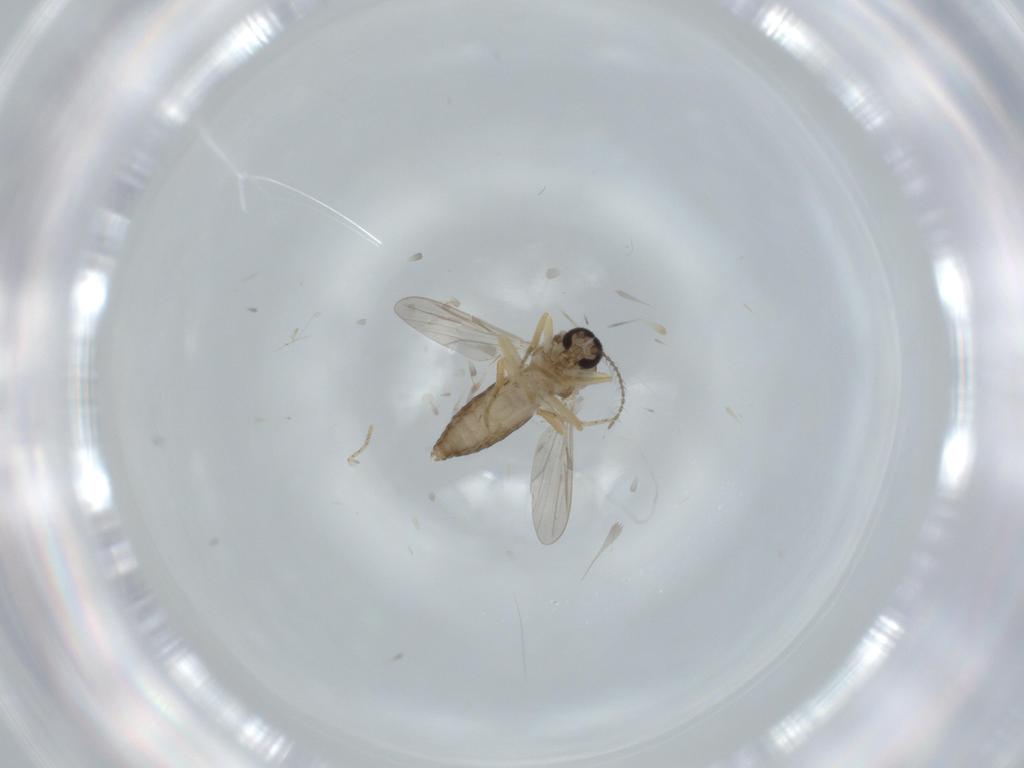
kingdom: Animalia
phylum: Arthropoda
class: Insecta
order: Diptera
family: Ceratopogonidae
